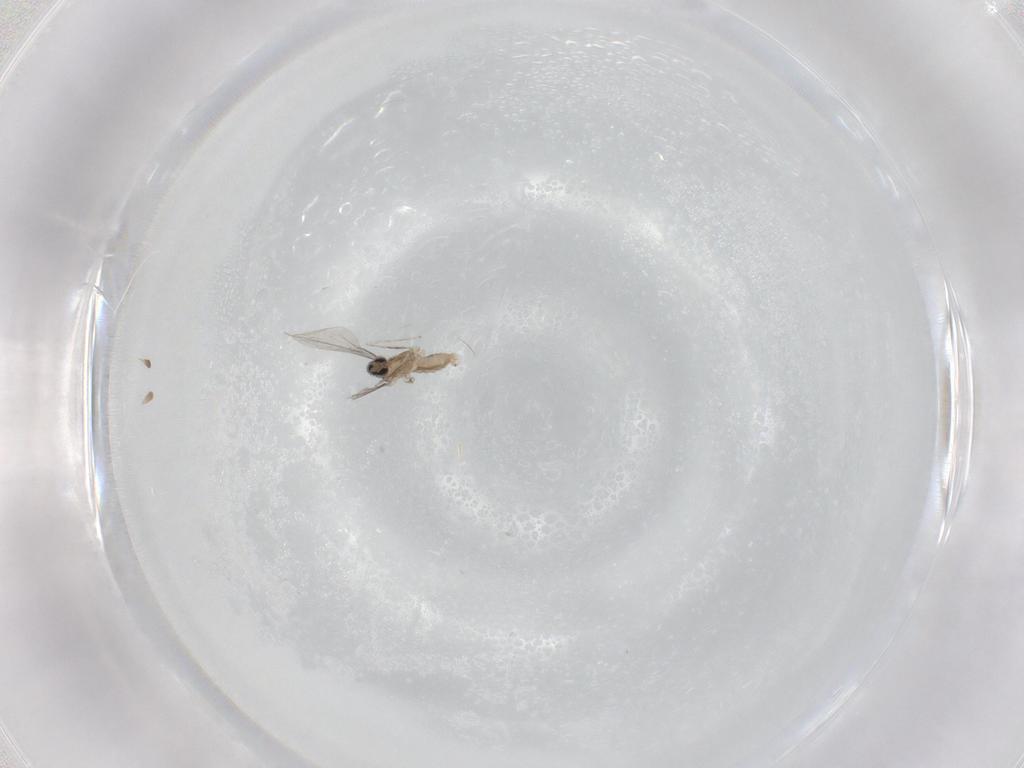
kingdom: Animalia
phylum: Arthropoda
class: Insecta
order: Diptera
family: Cecidomyiidae
